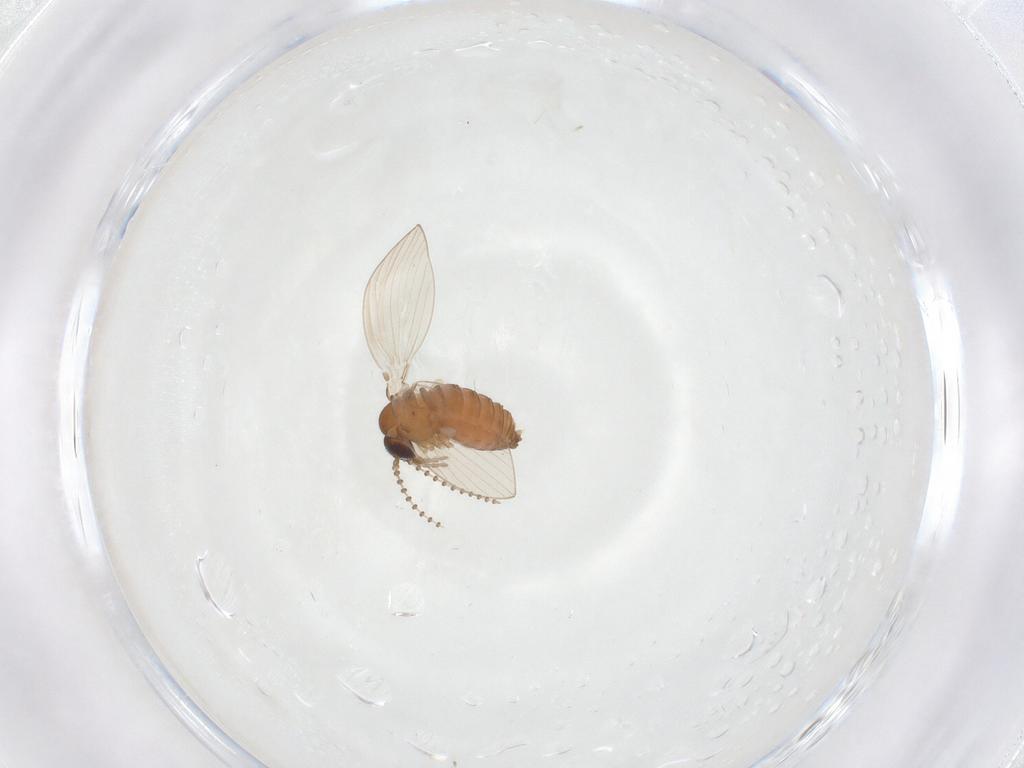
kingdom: Animalia
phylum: Arthropoda
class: Insecta
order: Diptera
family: Psychodidae
